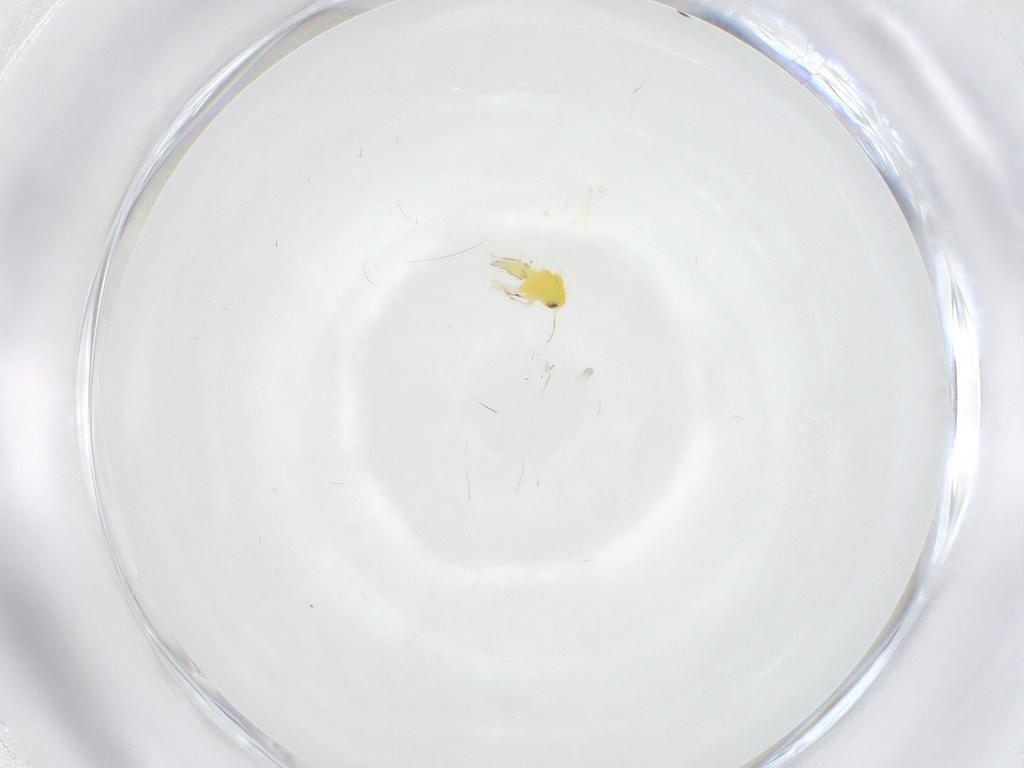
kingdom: Animalia
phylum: Arthropoda
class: Insecta
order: Hemiptera
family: Aleyrodidae
